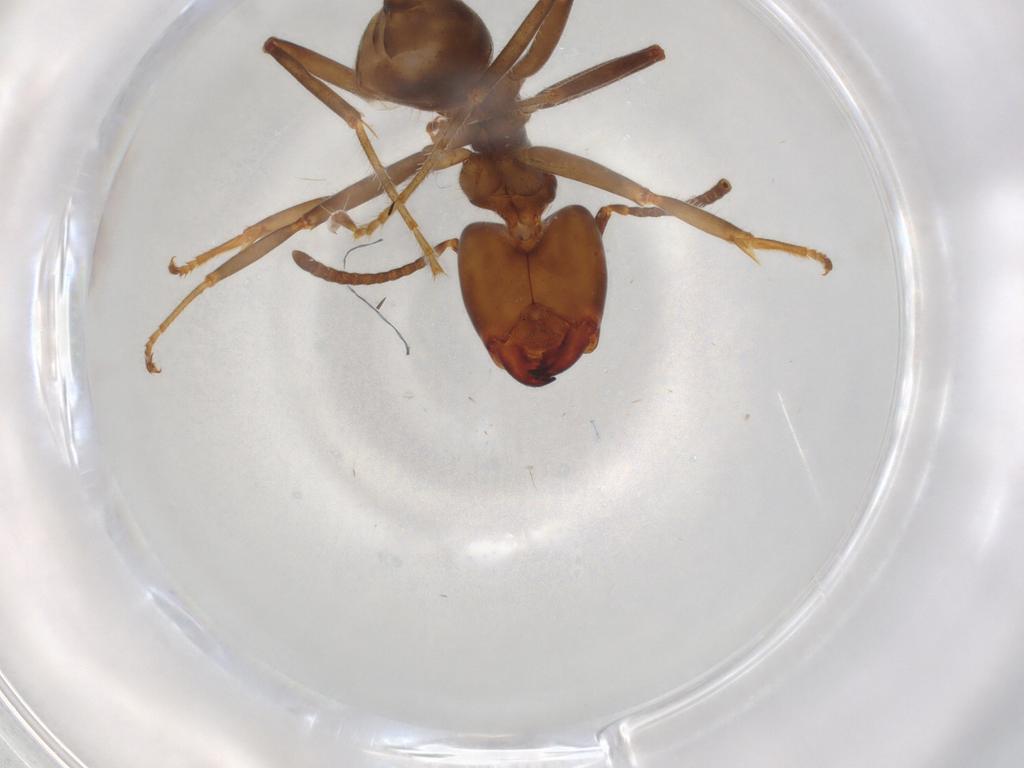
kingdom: Animalia
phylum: Arthropoda
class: Insecta
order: Hymenoptera
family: Formicidae
